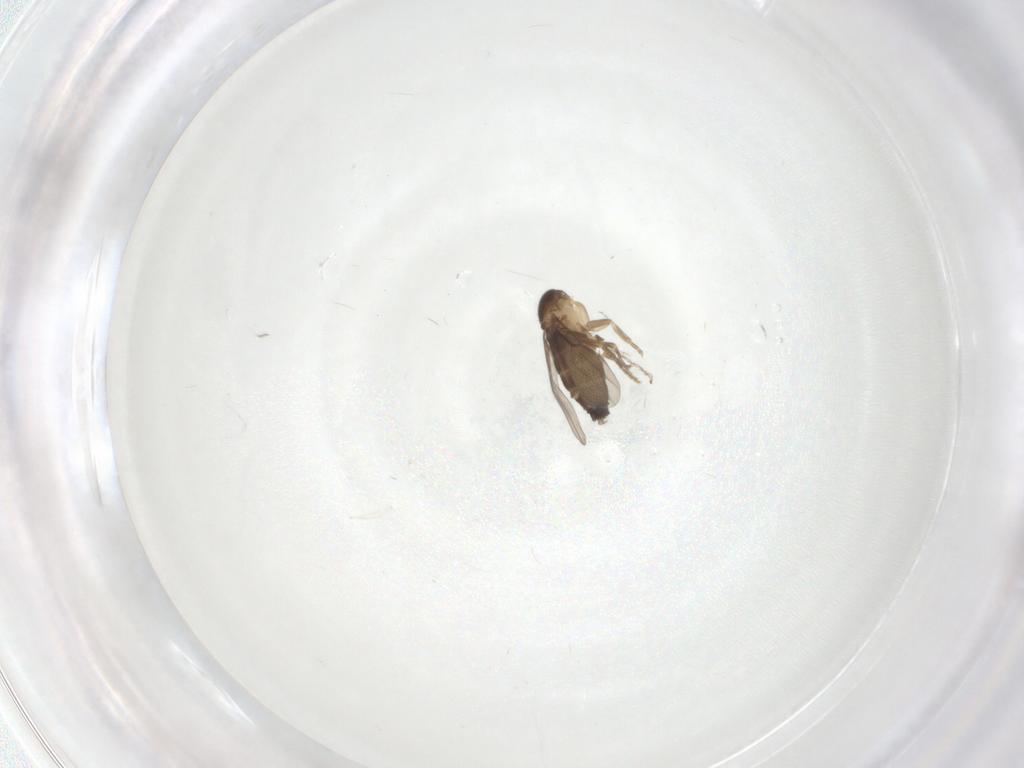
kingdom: Animalia
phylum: Arthropoda
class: Insecta
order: Diptera
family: Phoridae
